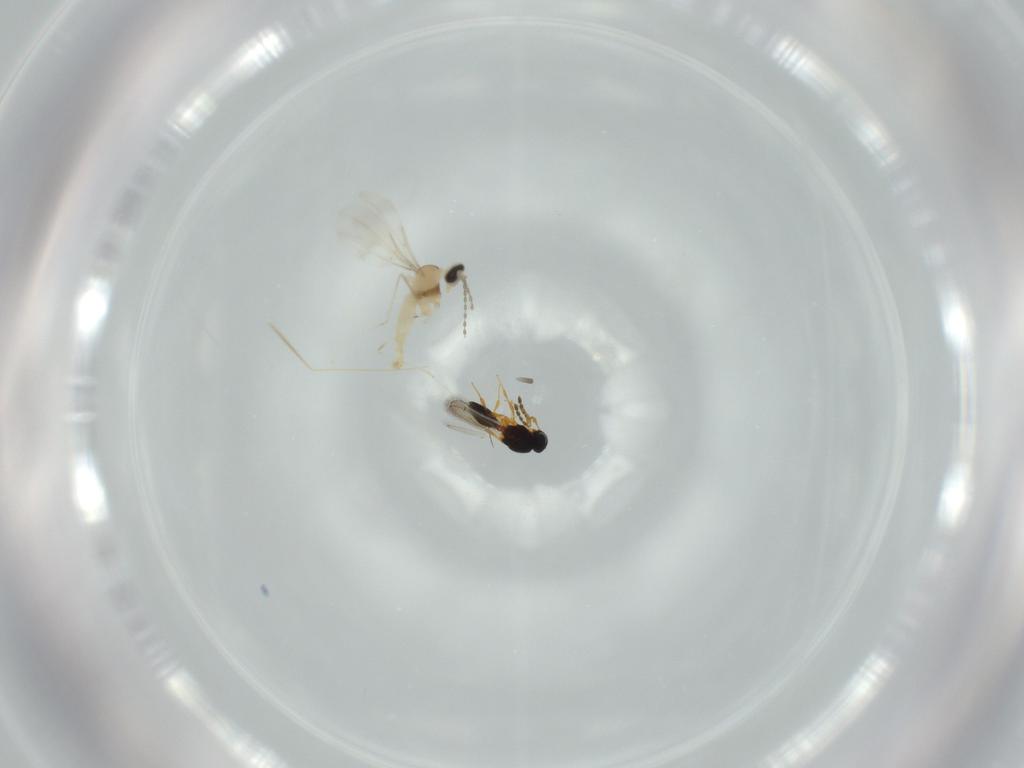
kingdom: Animalia
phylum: Arthropoda
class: Insecta
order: Diptera
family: Cecidomyiidae
